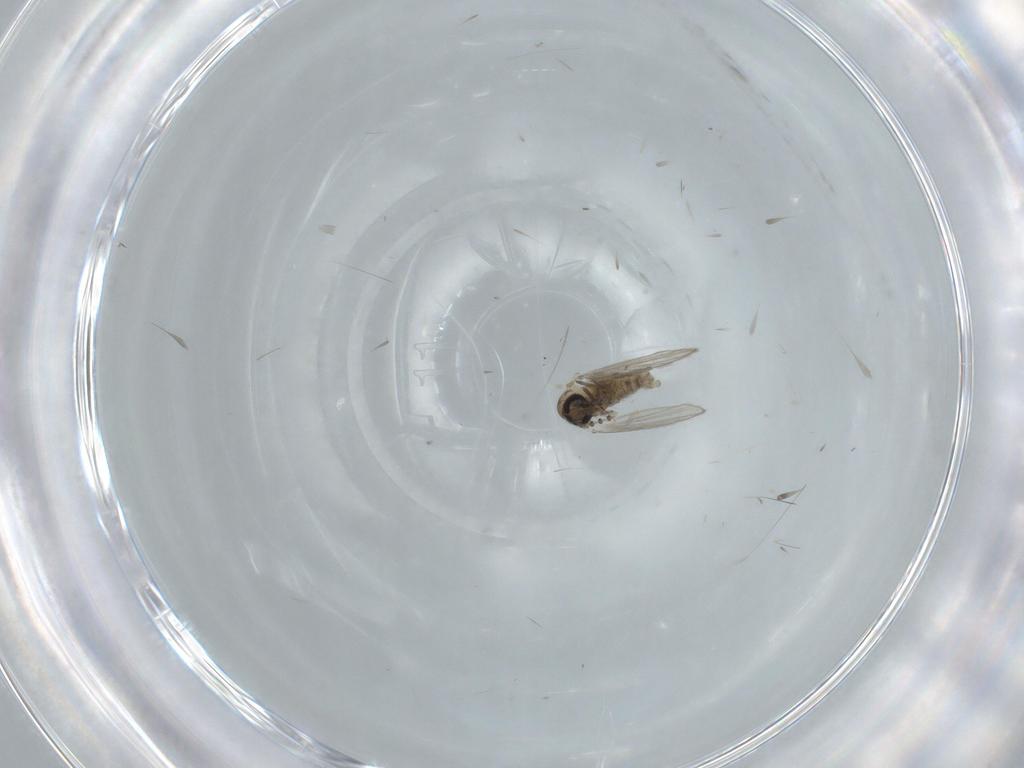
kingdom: Animalia
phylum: Arthropoda
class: Insecta
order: Diptera
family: Psychodidae
